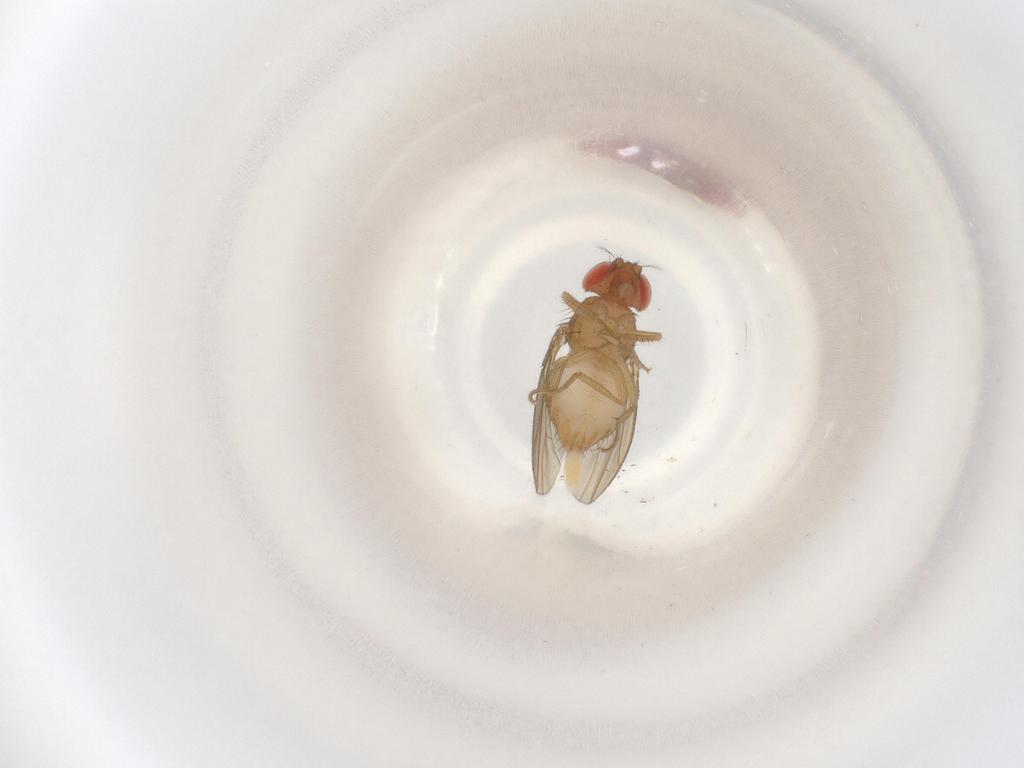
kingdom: Animalia
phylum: Arthropoda
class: Insecta
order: Diptera
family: Drosophilidae
